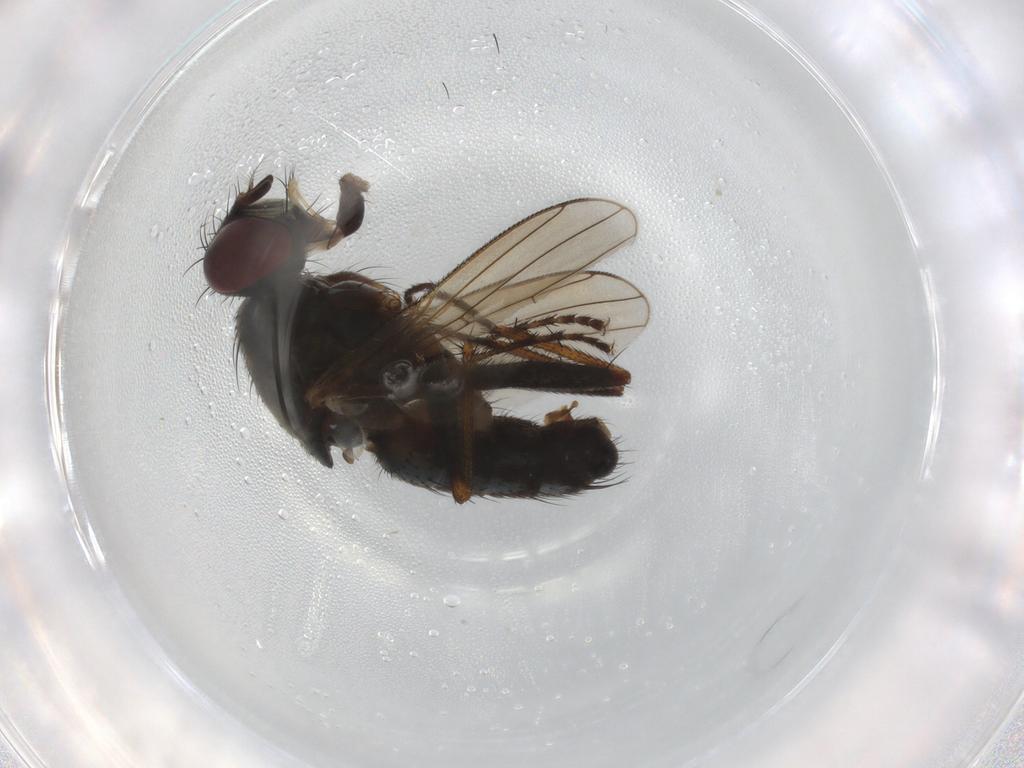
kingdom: Animalia
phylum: Arthropoda
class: Insecta
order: Diptera
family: Muscidae
